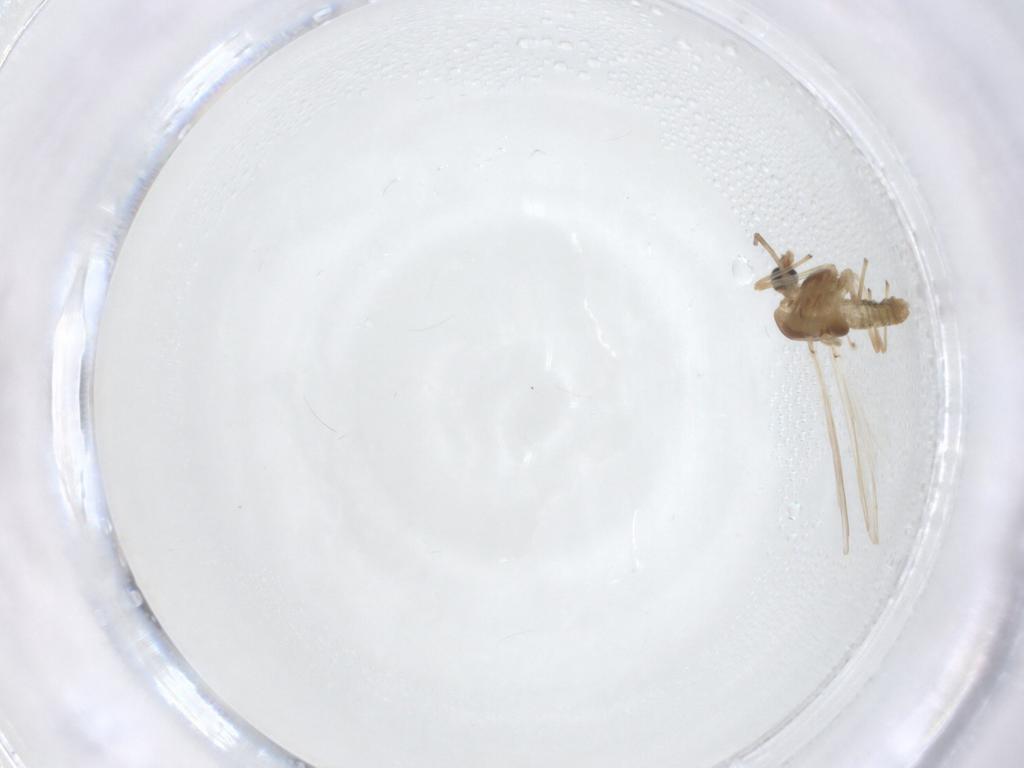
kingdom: Animalia
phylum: Arthropoda
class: Insecta
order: Diptera
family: Chironomidae
